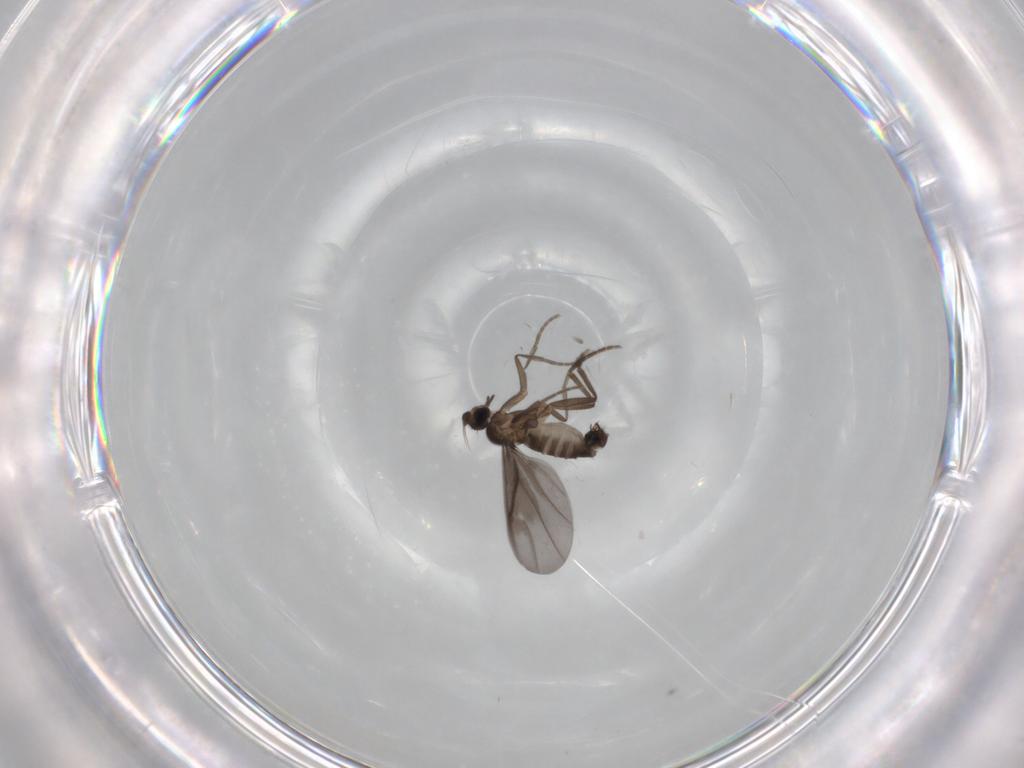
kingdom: Animalia
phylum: Arthropoda
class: Insecta
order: Diptera
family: Phoridae
